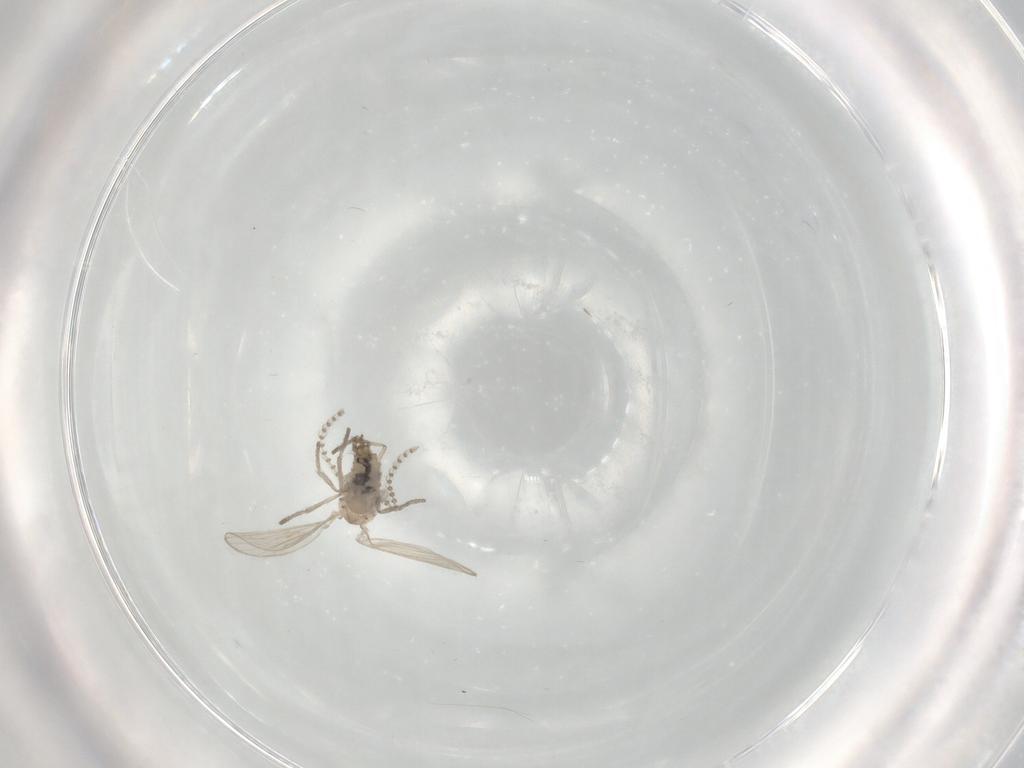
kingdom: Animalia
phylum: Arthropoda
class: Insecta
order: Diptera
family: Psychodidae
